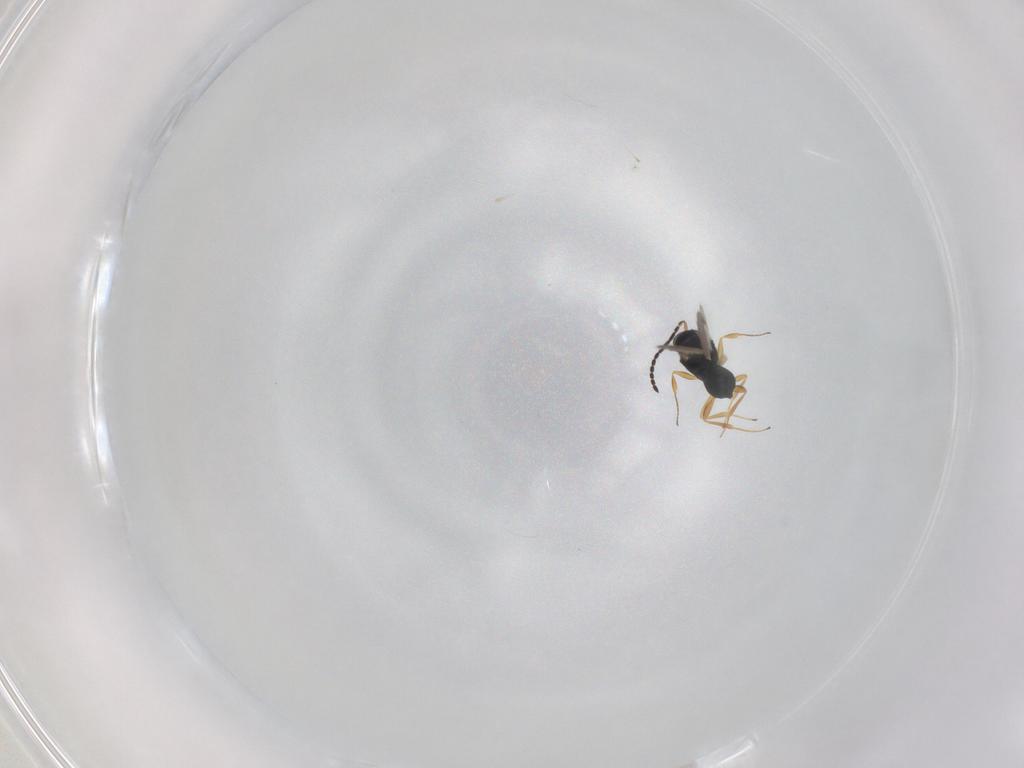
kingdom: Animalia
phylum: Arthropoda
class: Insecta
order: Hymenoptera
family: Scelionidae
